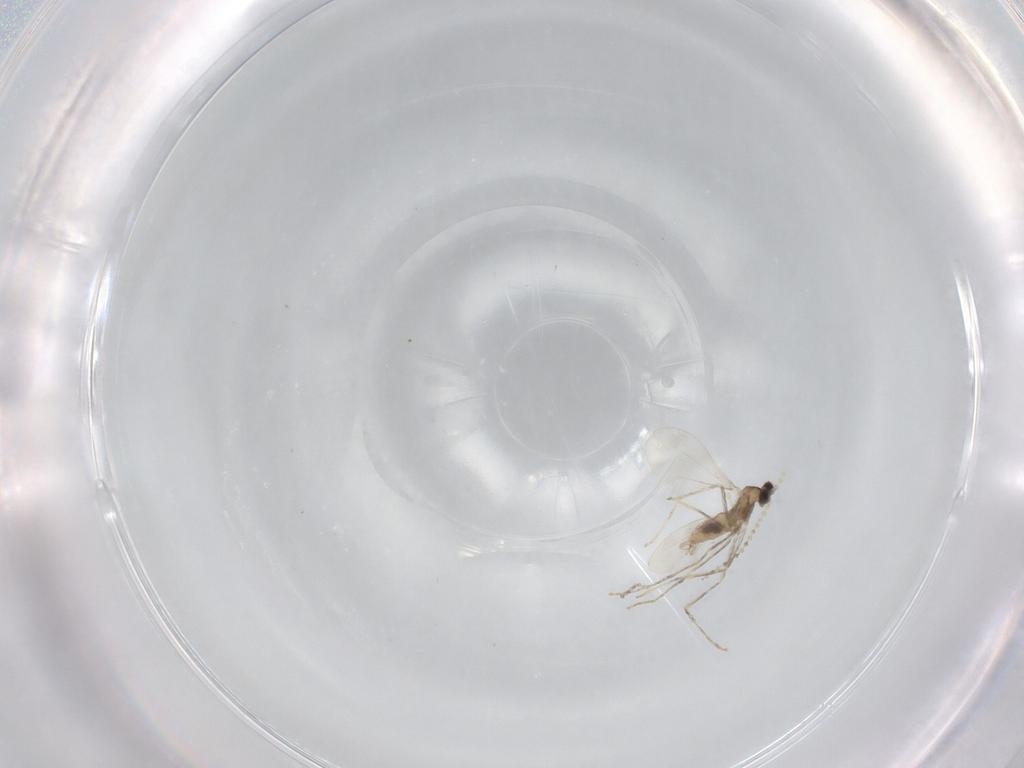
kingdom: Animalia
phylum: Arthropoda
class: Insecta
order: Diptera
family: Cecidomyiidae
